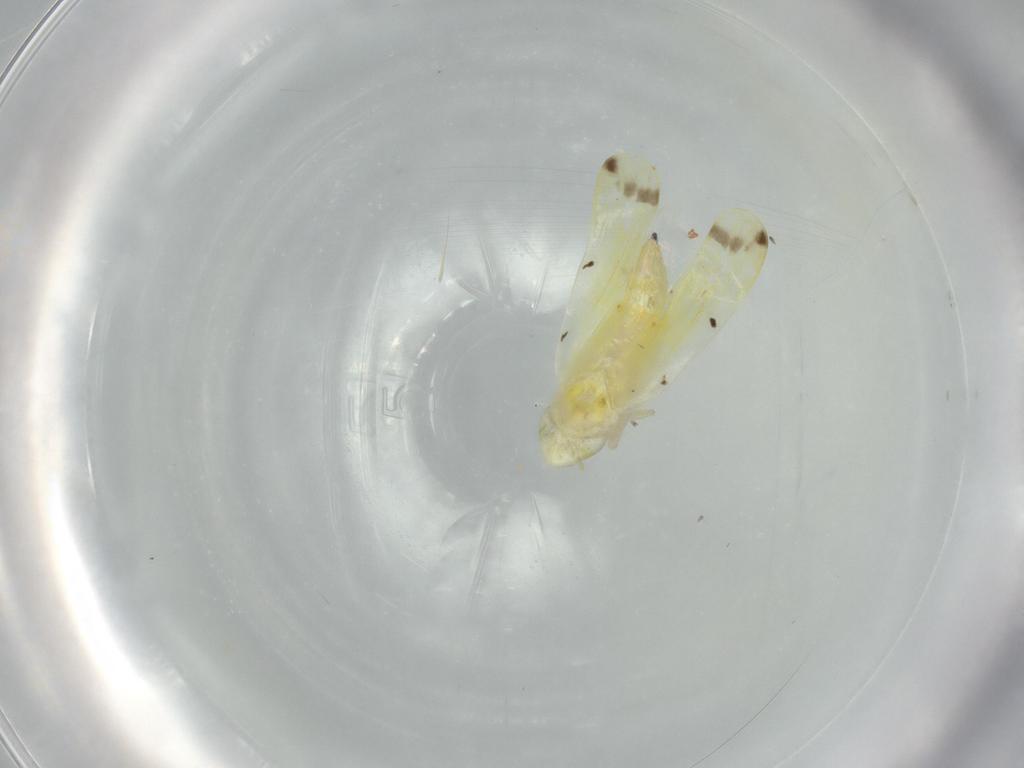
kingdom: Animalia
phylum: Arthropoda
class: Insecta
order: Hemiptera
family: Cicadellidae
